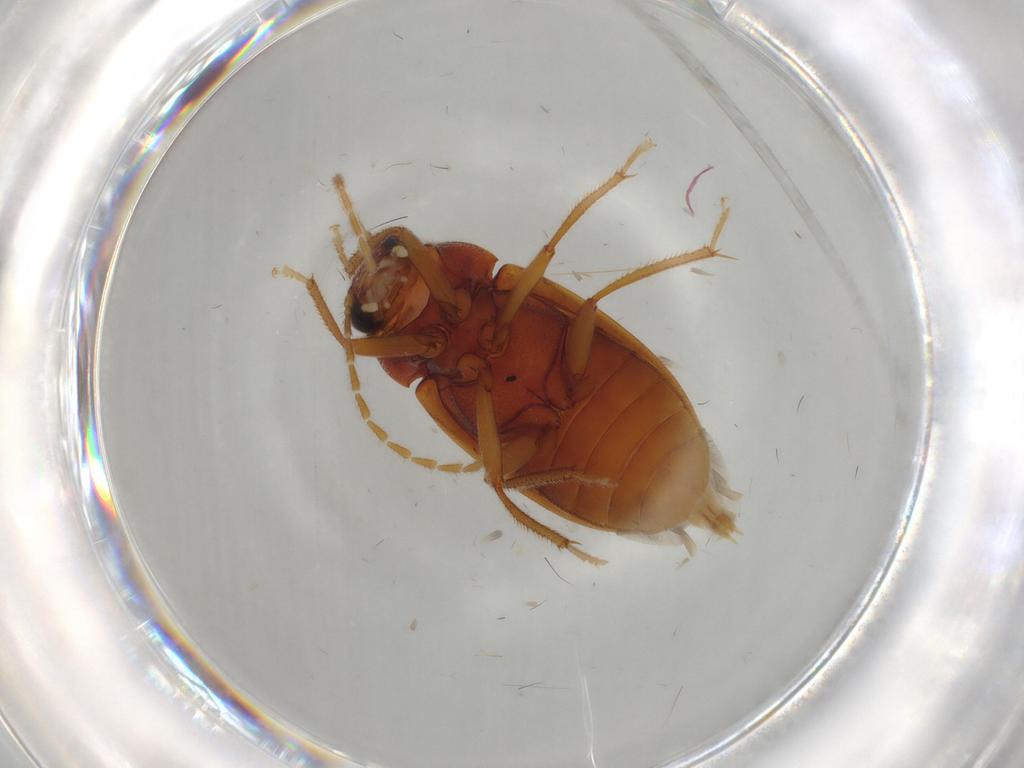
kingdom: Animalia
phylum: Arthropoda
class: Insecta
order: Coleoptera
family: Ptilodactylidae
